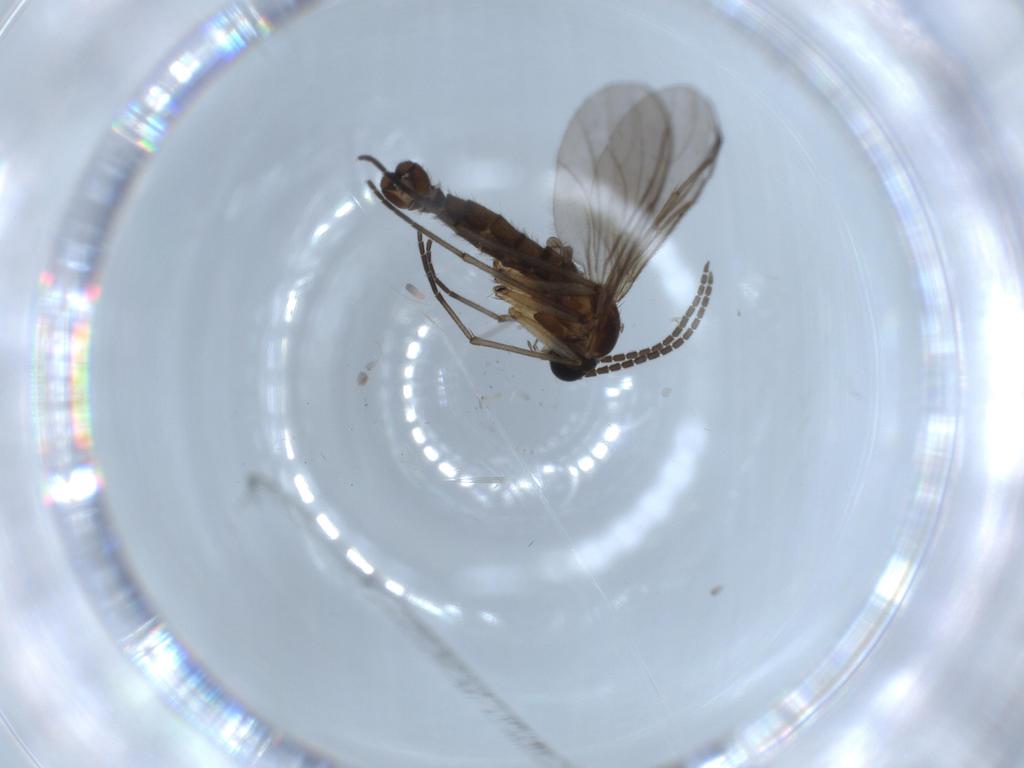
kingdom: Animalia
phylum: Arthropoda
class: Insecta
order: Diptera
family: Sciaridae
